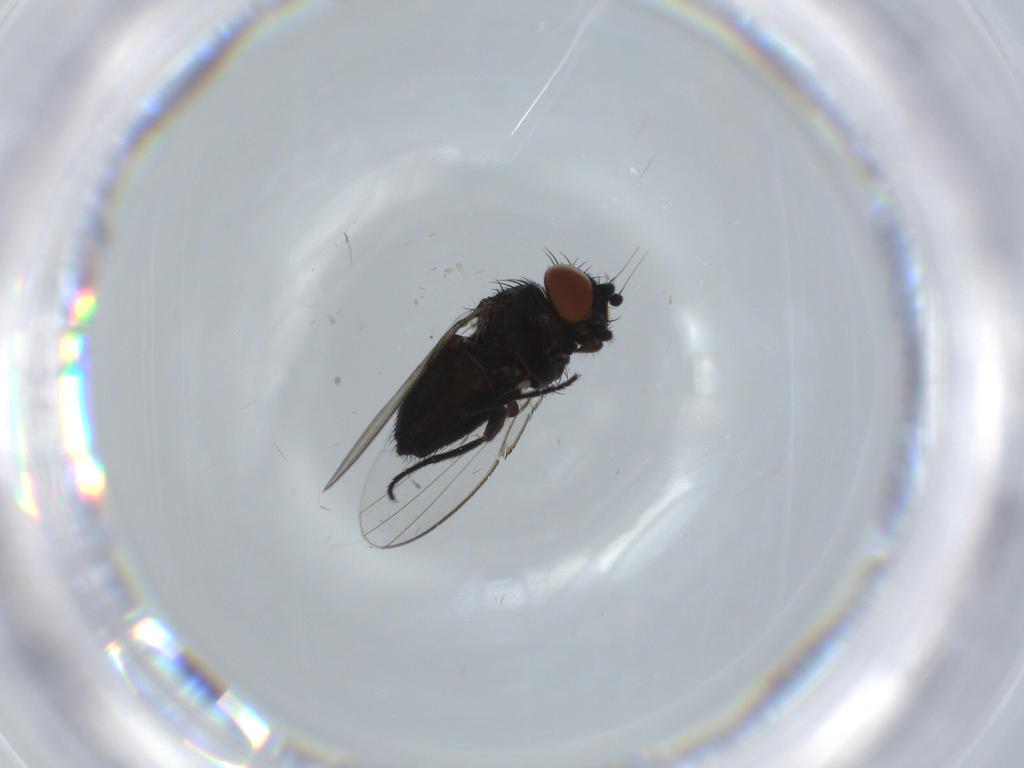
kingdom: Animalia
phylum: Arthropoda
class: Insecta
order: Diptera
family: Milichiidae
